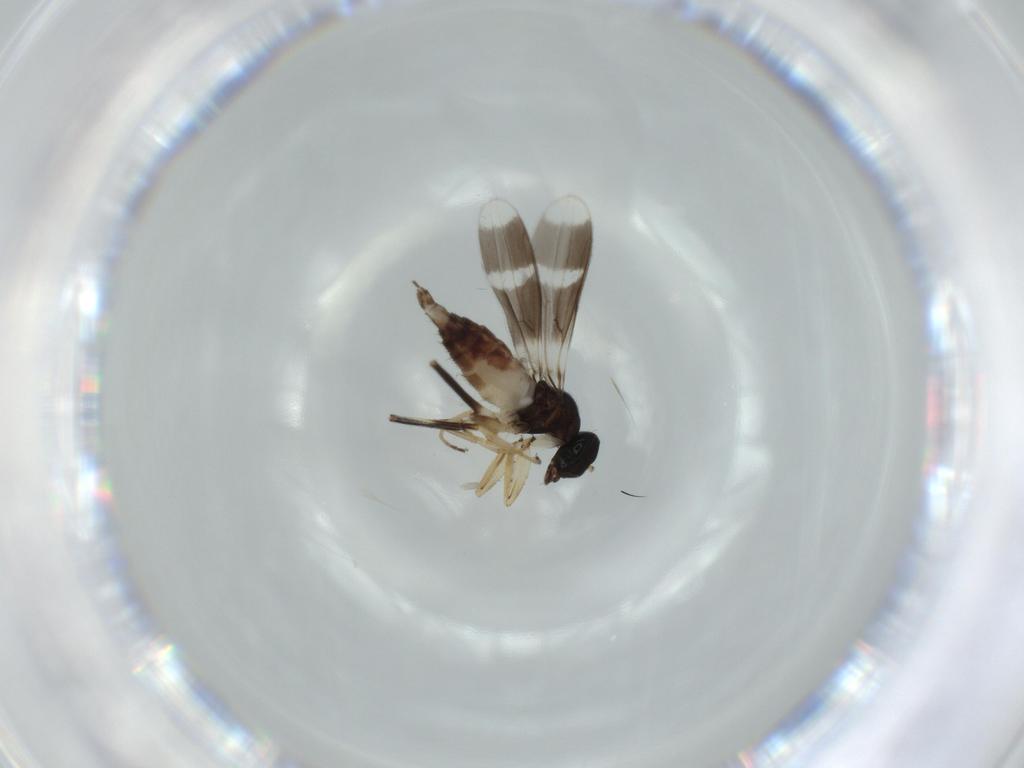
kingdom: Animalia
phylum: Arthropoda
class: Insecta
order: Diptera
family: Hybotidae
